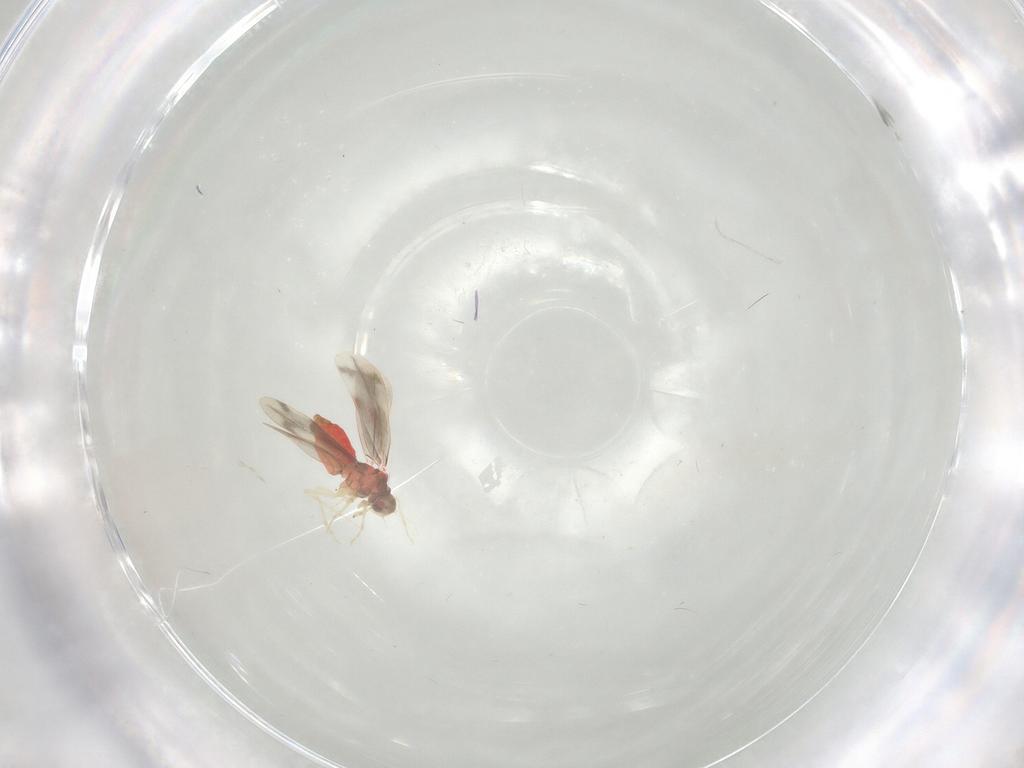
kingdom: Animalia
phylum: Arthropoda
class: Insecta
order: Hemiptera
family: Aleyrodidae
